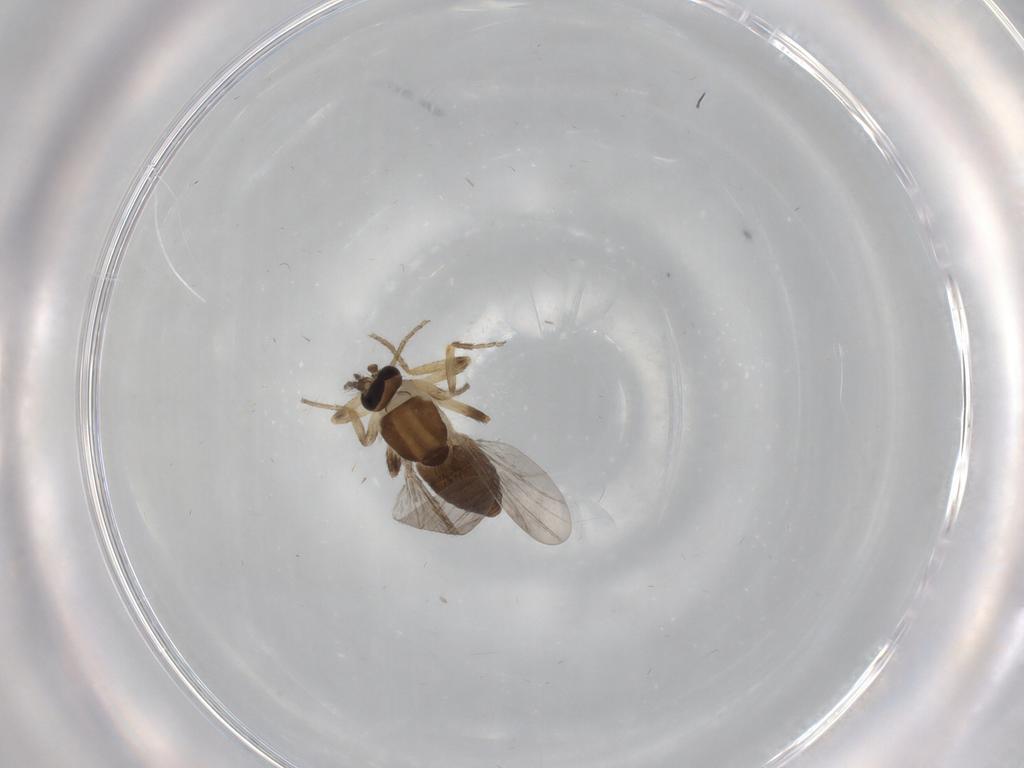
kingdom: Animalia
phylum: Arthropoda
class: Insecta
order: Diptera
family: Ceratopogonidae
